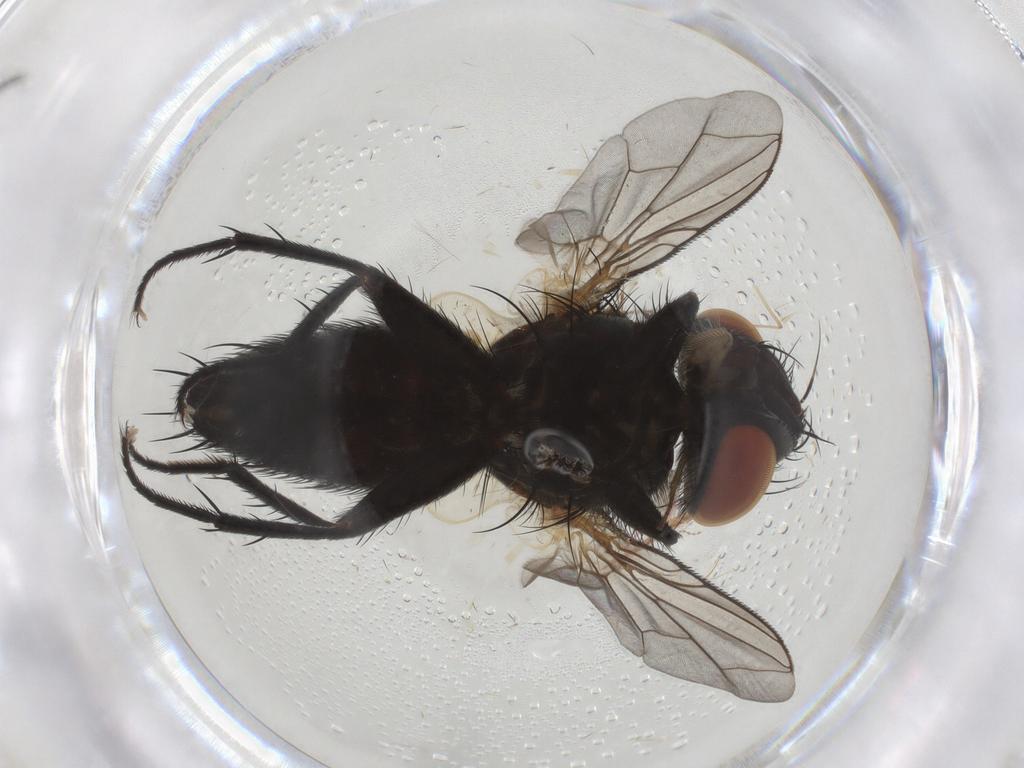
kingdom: Animalia
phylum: Arthropoda
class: Insecta
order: Diptera
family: Sarcophagidae
